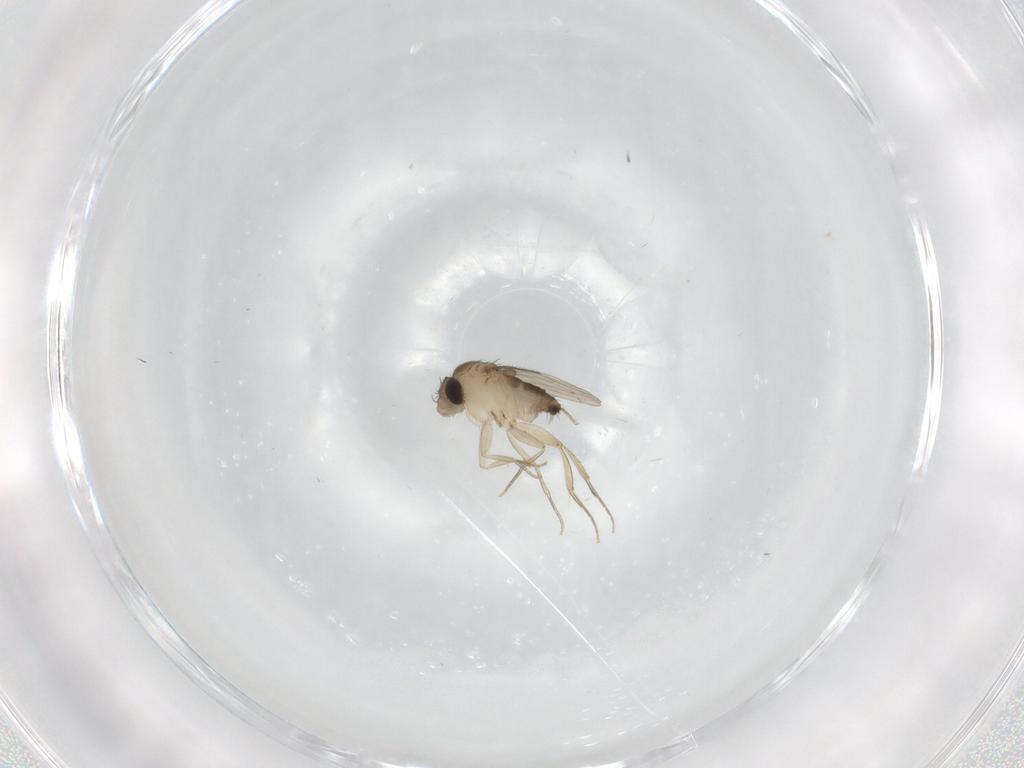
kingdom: Animalia
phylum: Arthropoda
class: Insecta
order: Diptera
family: Phoridae
